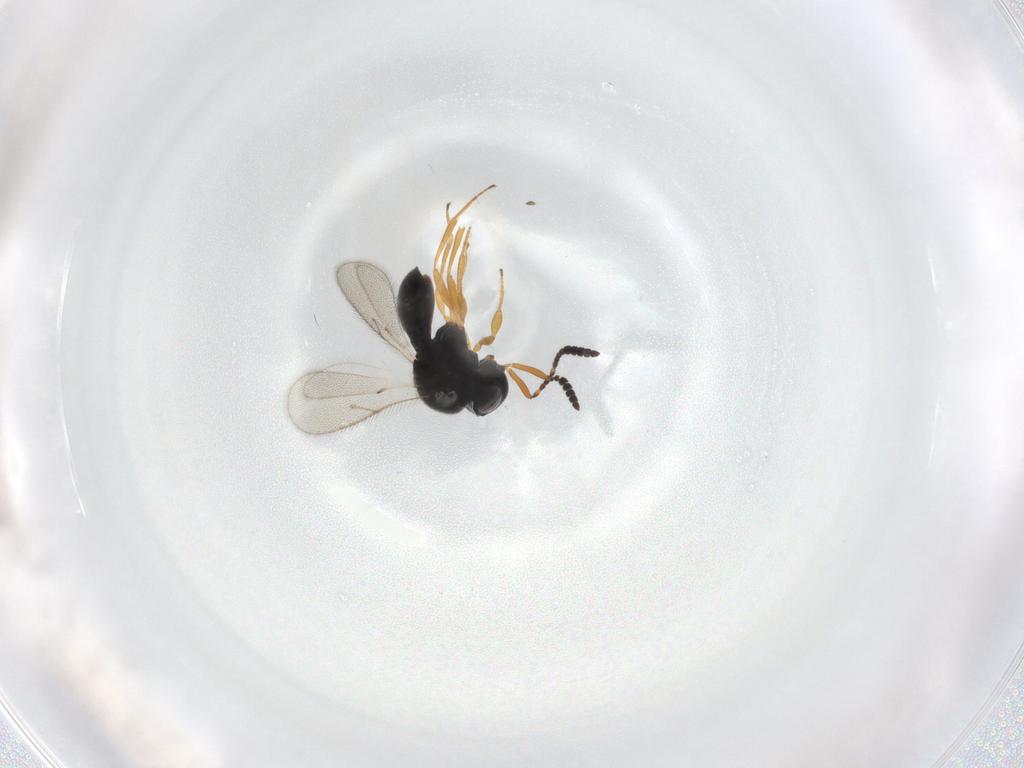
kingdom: Animalia
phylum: Arthropoda
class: Insecta
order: Hymenoptera
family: Scelionidae
